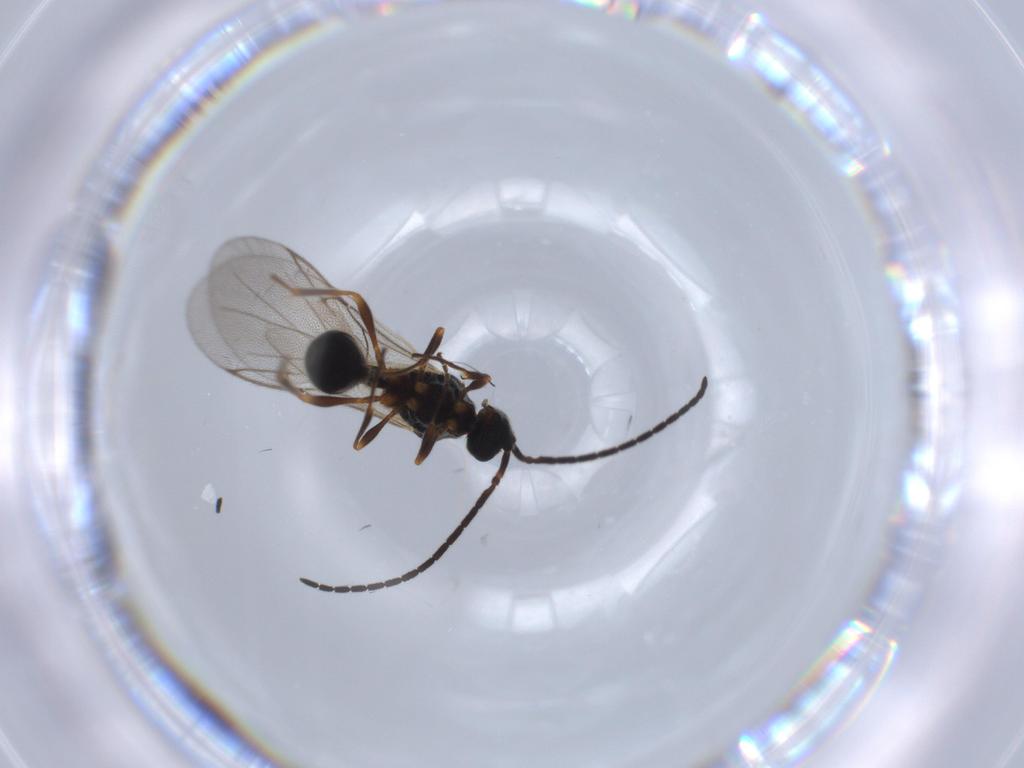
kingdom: Animalia
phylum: Arthropoda
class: Insecta
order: Hymenoptera
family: Diapriidae
